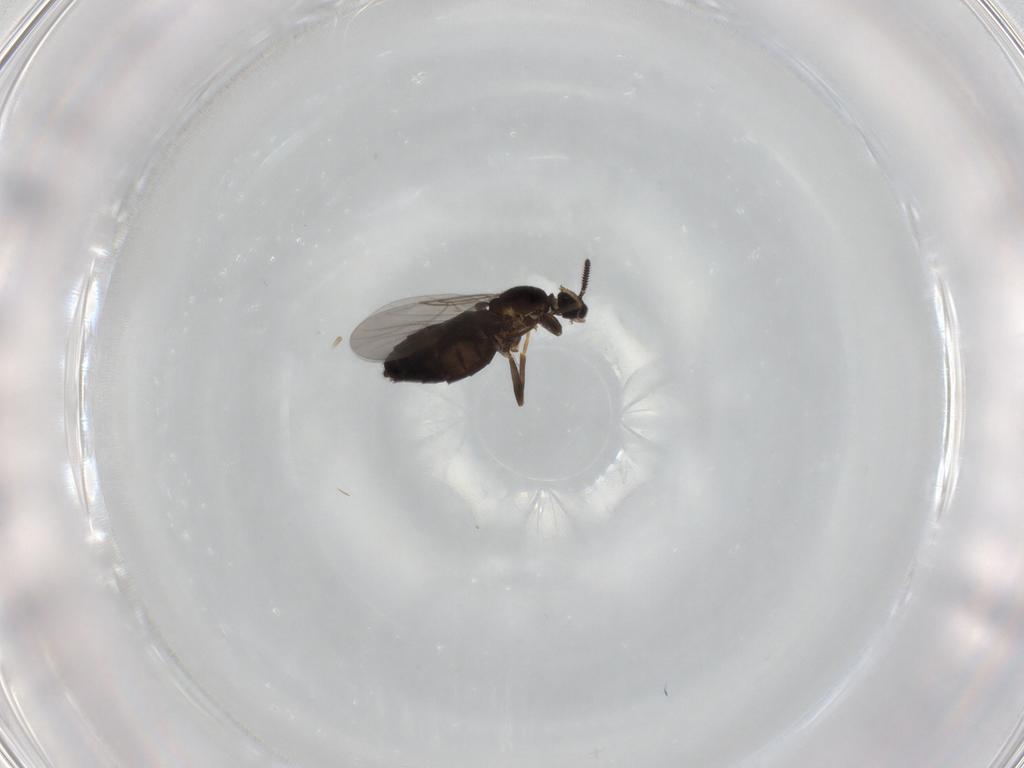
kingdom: Animalia
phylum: Arthropoda
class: Insecta
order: Diptera
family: Scatopsidae
